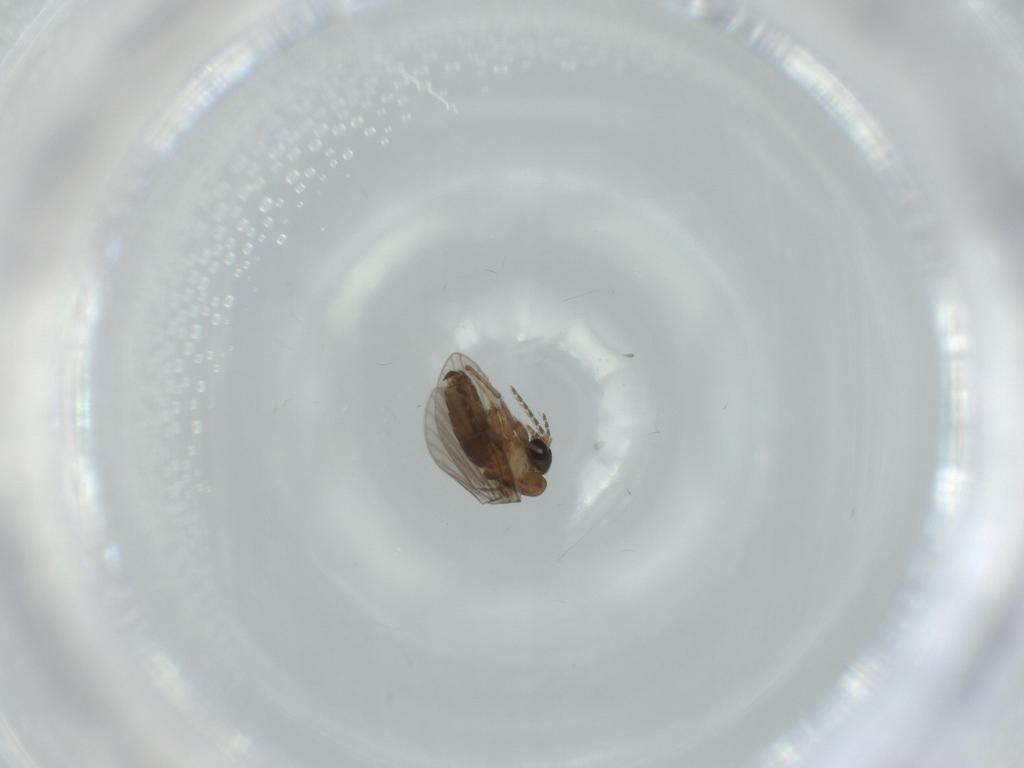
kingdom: Animalia
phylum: Arthropoda
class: Insecta
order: Diptera
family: Psychodidae
